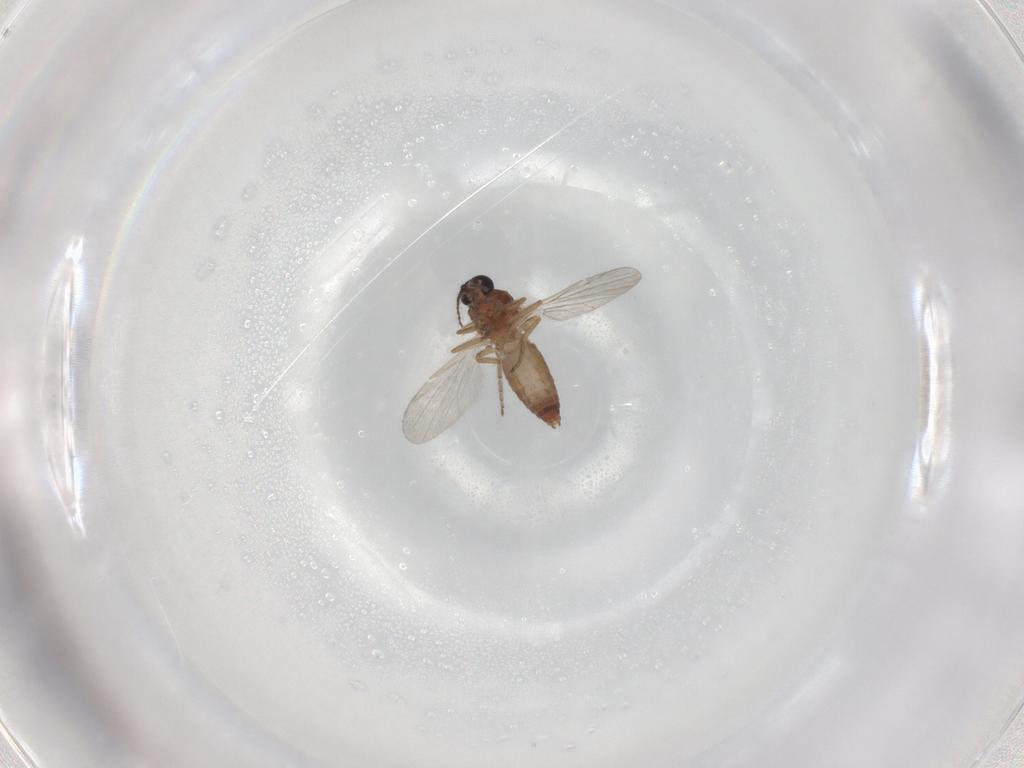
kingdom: Animalia
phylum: Arthropoda
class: Insecta
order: Diptera
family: Ceratopogonidae
